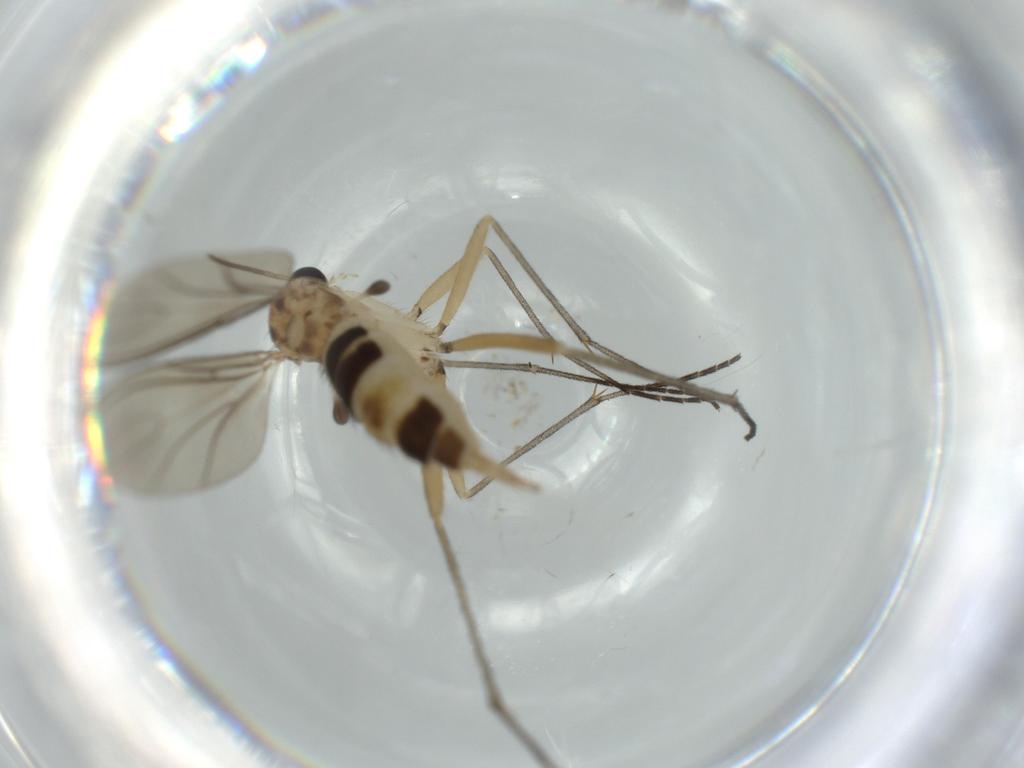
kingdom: Animalia
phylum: Arthropoda
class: Insecta
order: Diptera
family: Sciaridae
